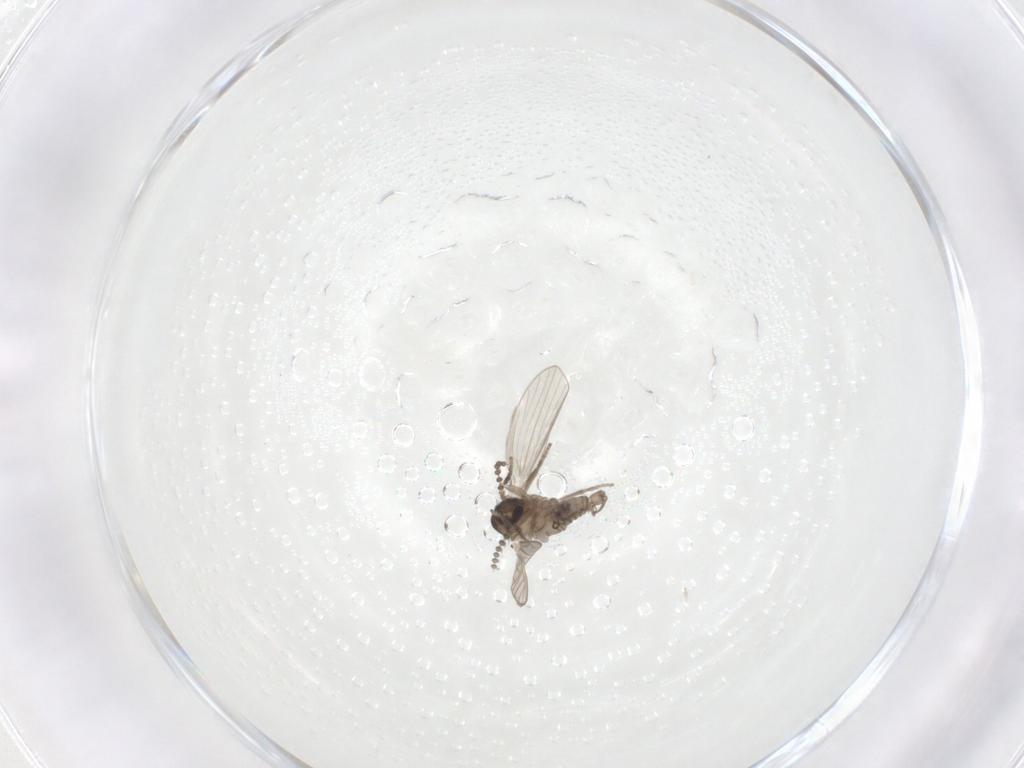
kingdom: Animalia
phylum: Arthropoda
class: Insecta
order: Diptera
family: Psychodidae
